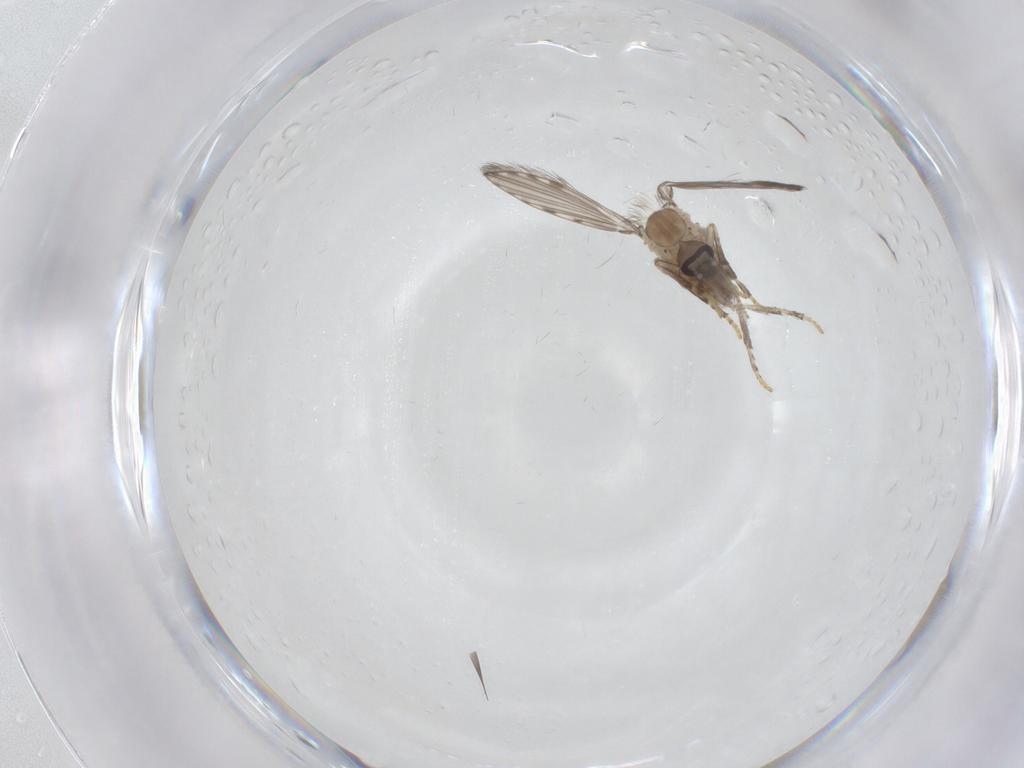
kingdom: Animalia
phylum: Arthropoda
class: Insecta
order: Diptera
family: Psychodidae
